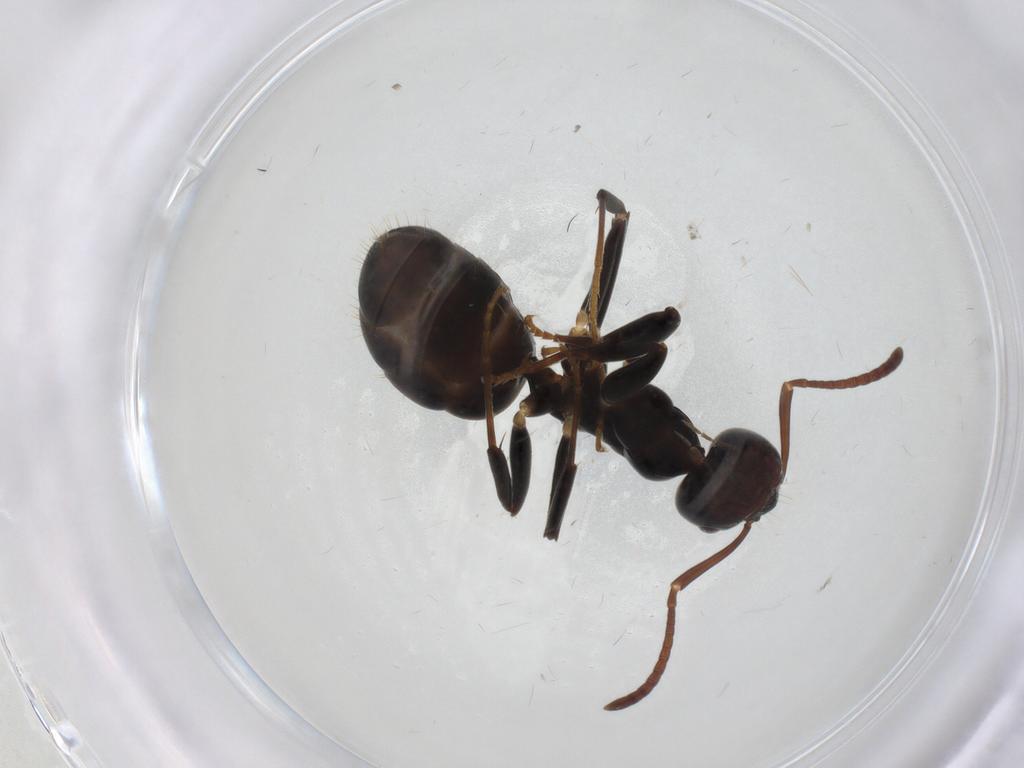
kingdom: Animalia
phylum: Arthropoda
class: Insecta
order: Hymenoptera
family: Formicidae
